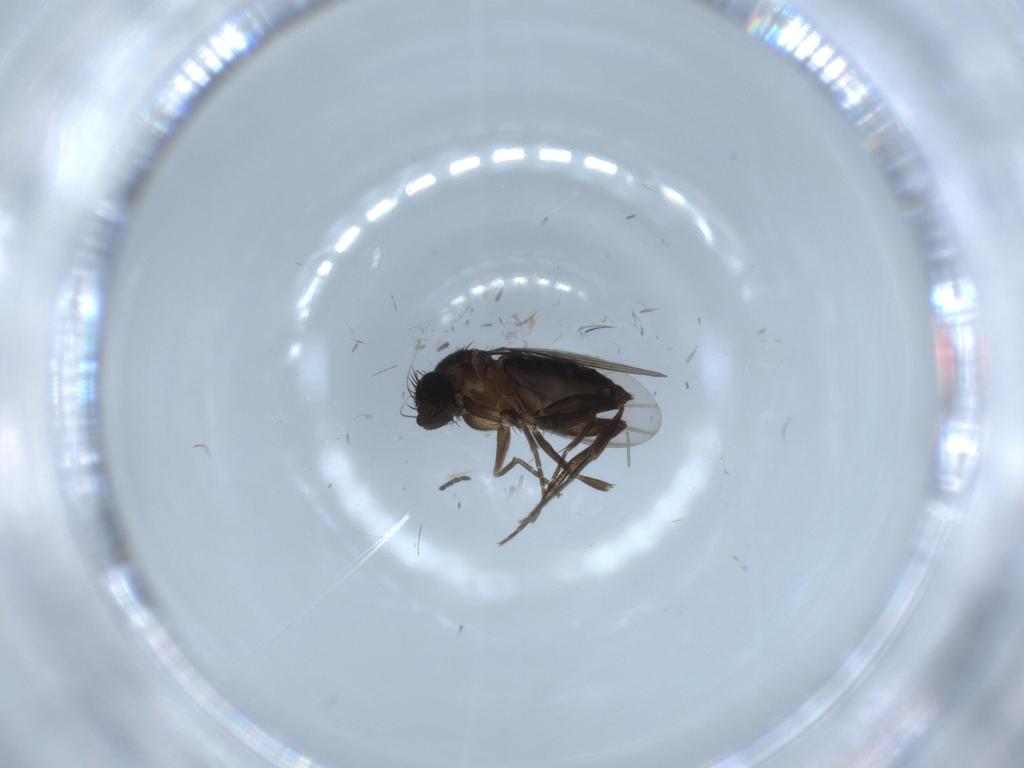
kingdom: Animalia
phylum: Arthropoda
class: Insecta
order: Diptera
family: Phoridae
